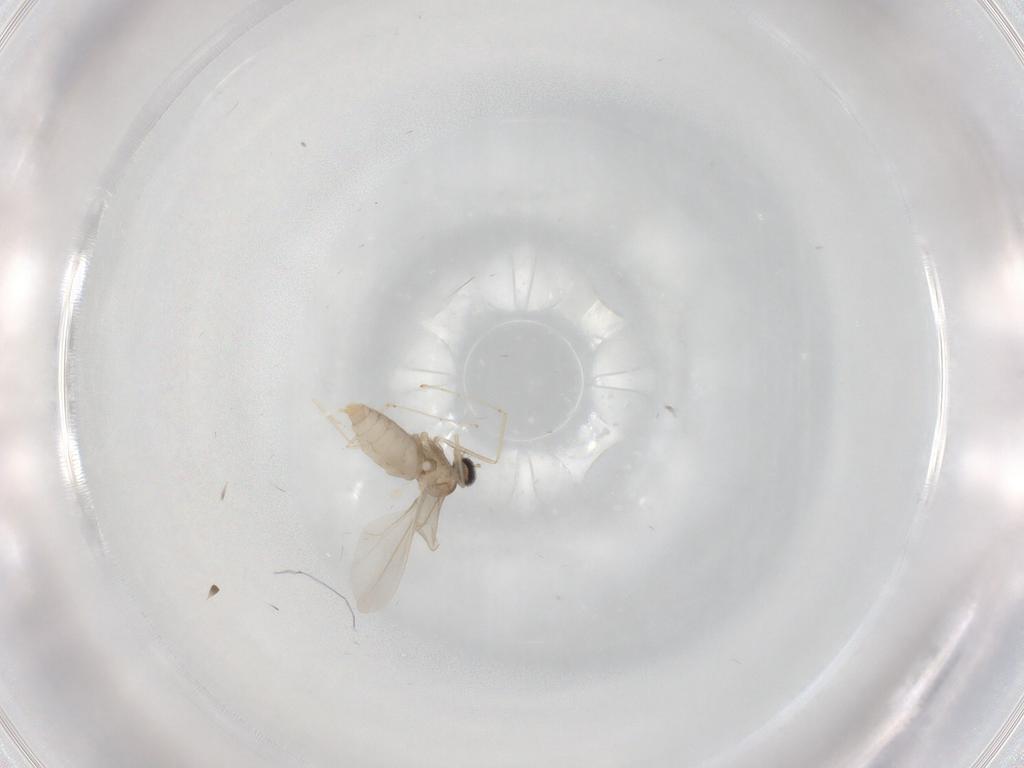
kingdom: Animalia
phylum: Arthropoda
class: Insecta
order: Diptera
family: Cecidomyiidae
